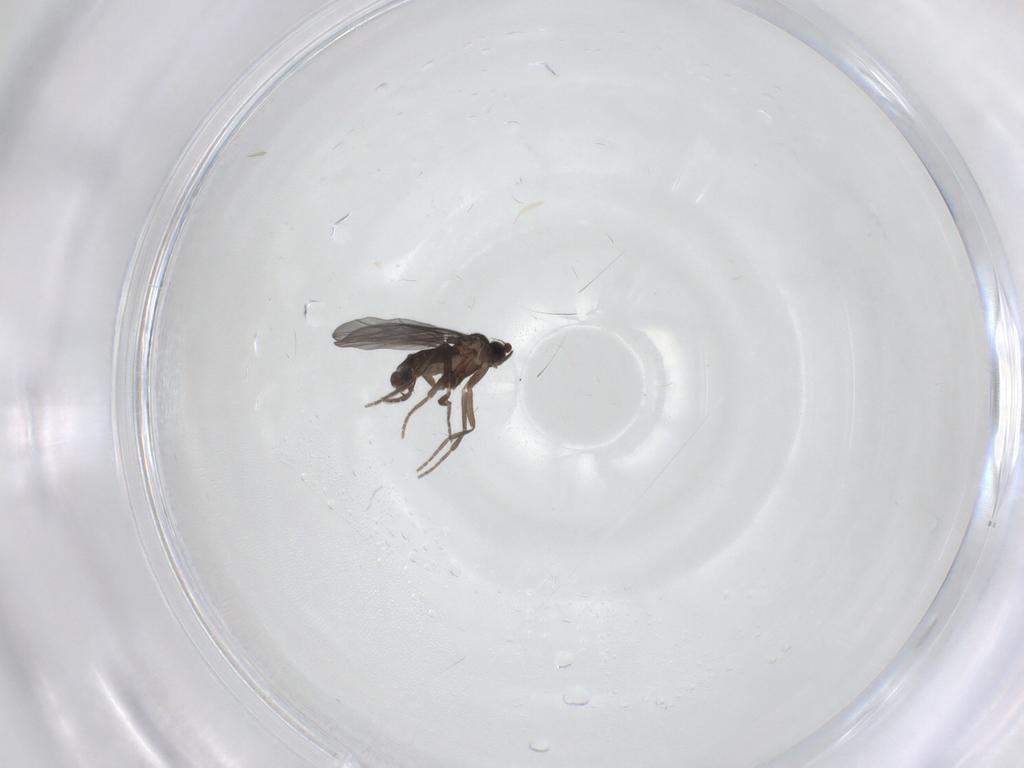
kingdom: Animalia
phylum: Arthropoda
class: Insecta
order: Diptera
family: Phoridae
